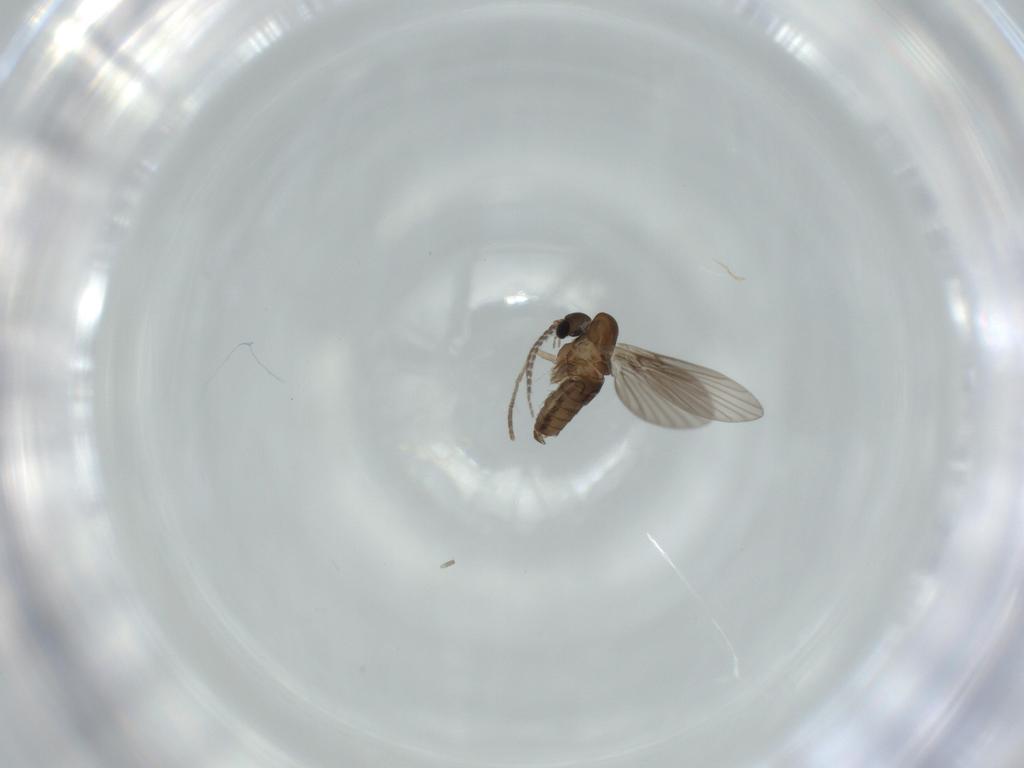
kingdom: Animalia
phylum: Arthropoda
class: Insecta
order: Diptera
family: Psychodidae
